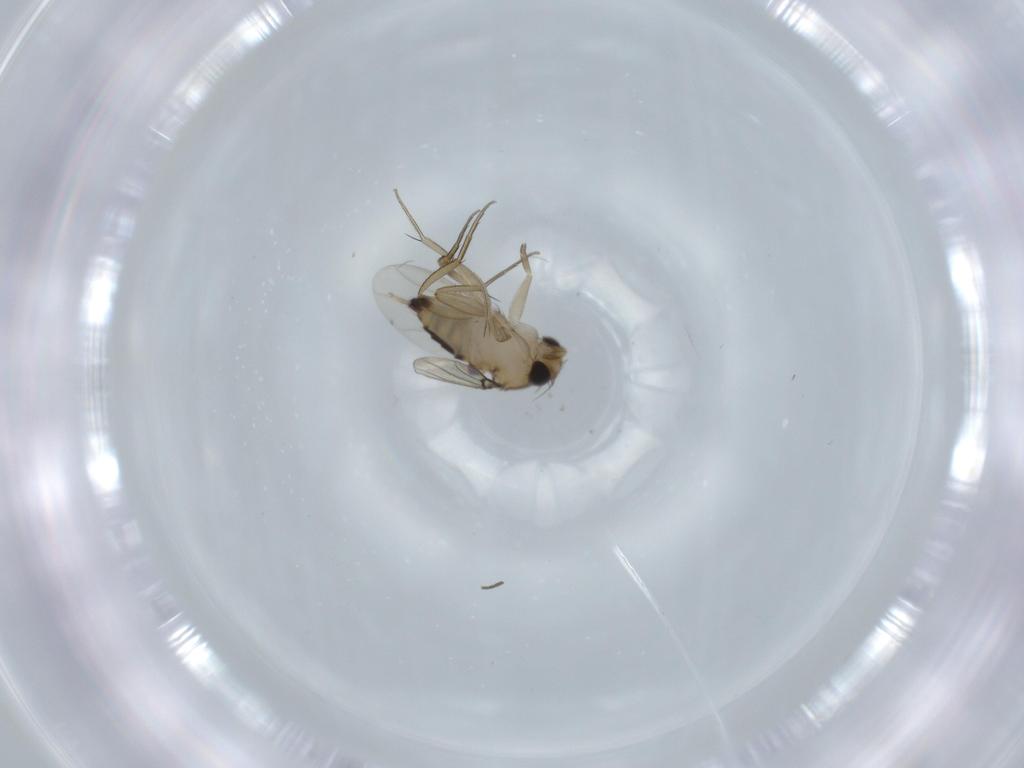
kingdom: Animalia
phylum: Arthropoda
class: Insecta
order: Diptera
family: Sciaridae
